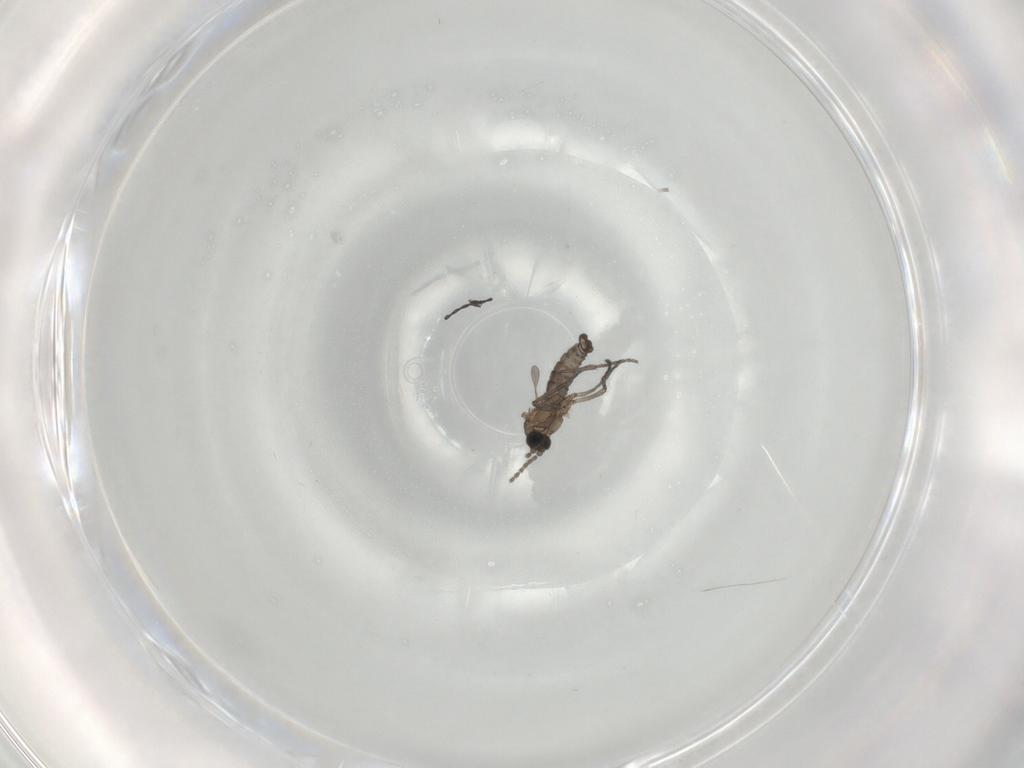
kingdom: Animalia
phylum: Arthropoda
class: Insecta
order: Diptera
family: Sciaridae
